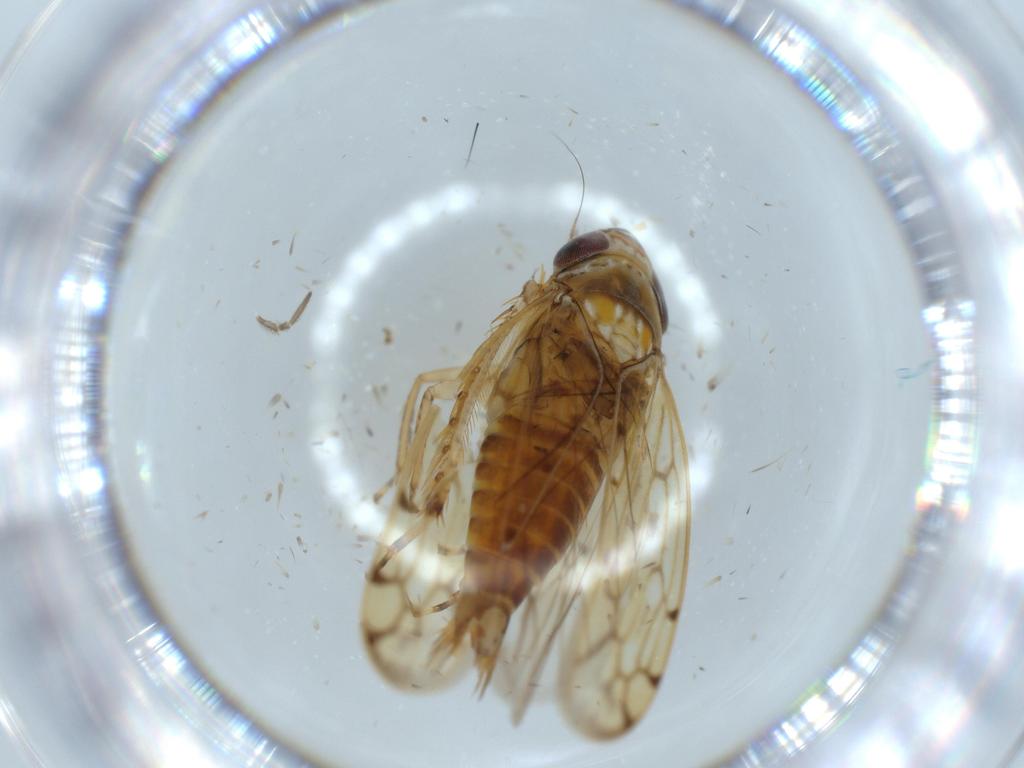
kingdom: Animalia
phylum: Arthropoda
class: Insecta
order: Hemiptera
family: Cicadellidae
